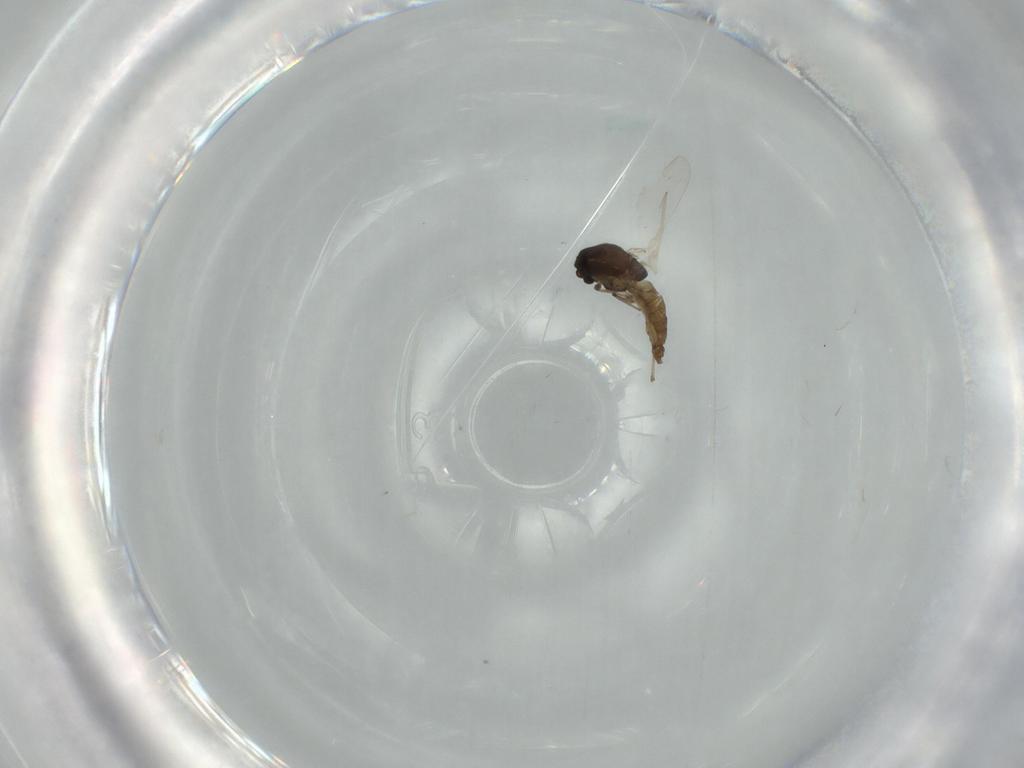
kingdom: Animalia
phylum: Arthropoda
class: Insecta
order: Diptera
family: Chironomidae
